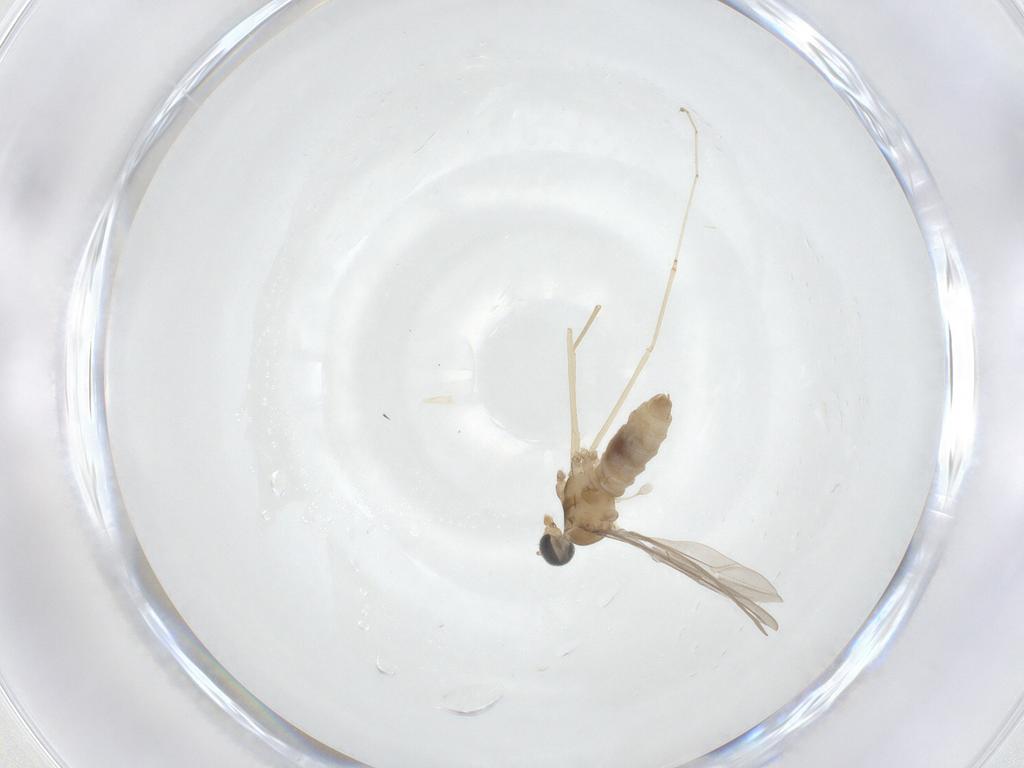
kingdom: Animalia
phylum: Arthropoda
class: Insecta
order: Diptera
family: Cecidomyiidae
